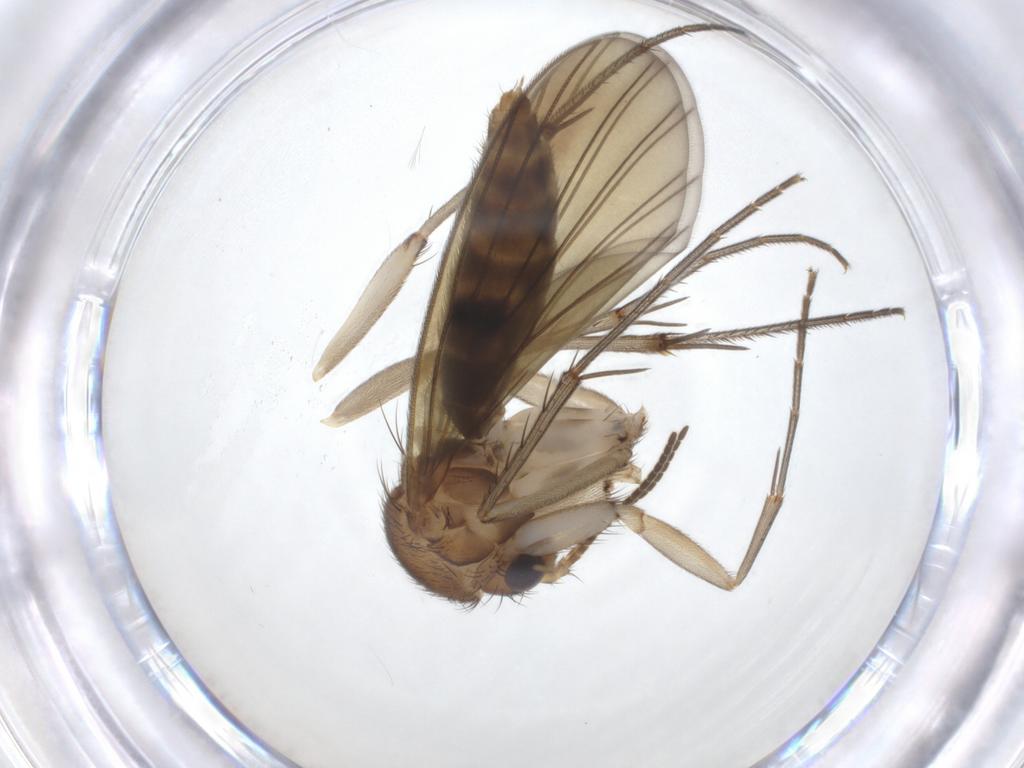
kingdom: Animalia
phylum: Arthropoda
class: Insecta
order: Diptera
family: Mycetophilidae
